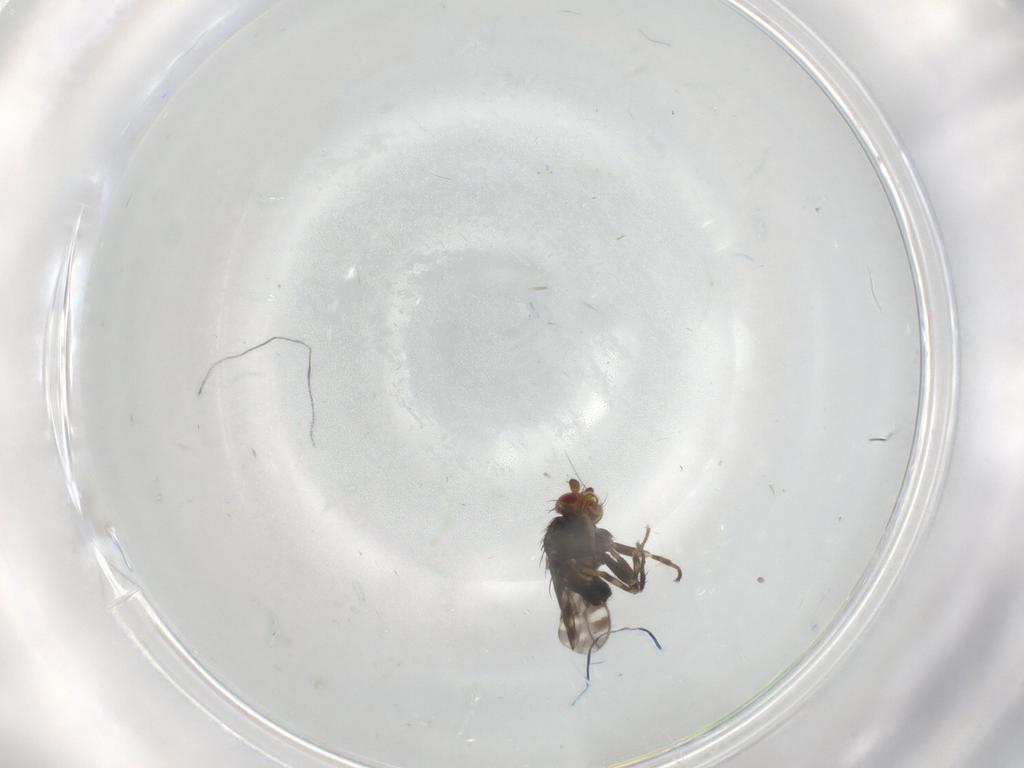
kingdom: Animalia
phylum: Arthropoda
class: Insecta
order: Diptera
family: Sphaeroceridae
